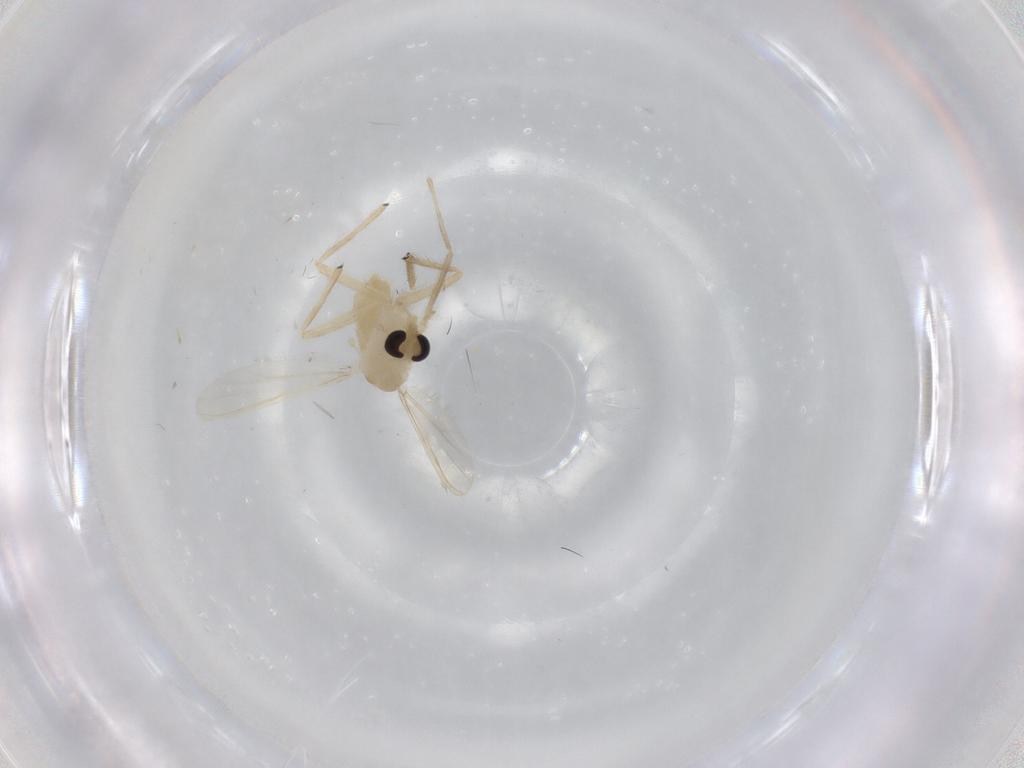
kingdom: Animalia
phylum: Arthropoda
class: Insecta
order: Diptera
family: Chironomidae
